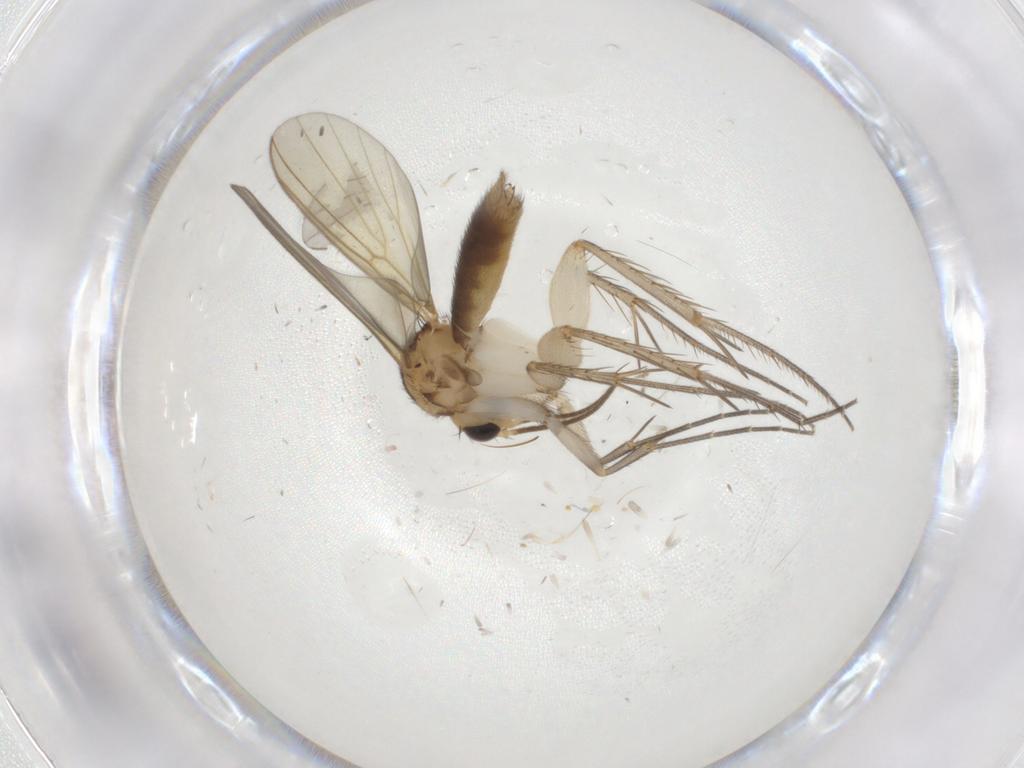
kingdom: Animalia
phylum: Arthropoda
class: Insecta
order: Diptera
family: Mycetophilidae
